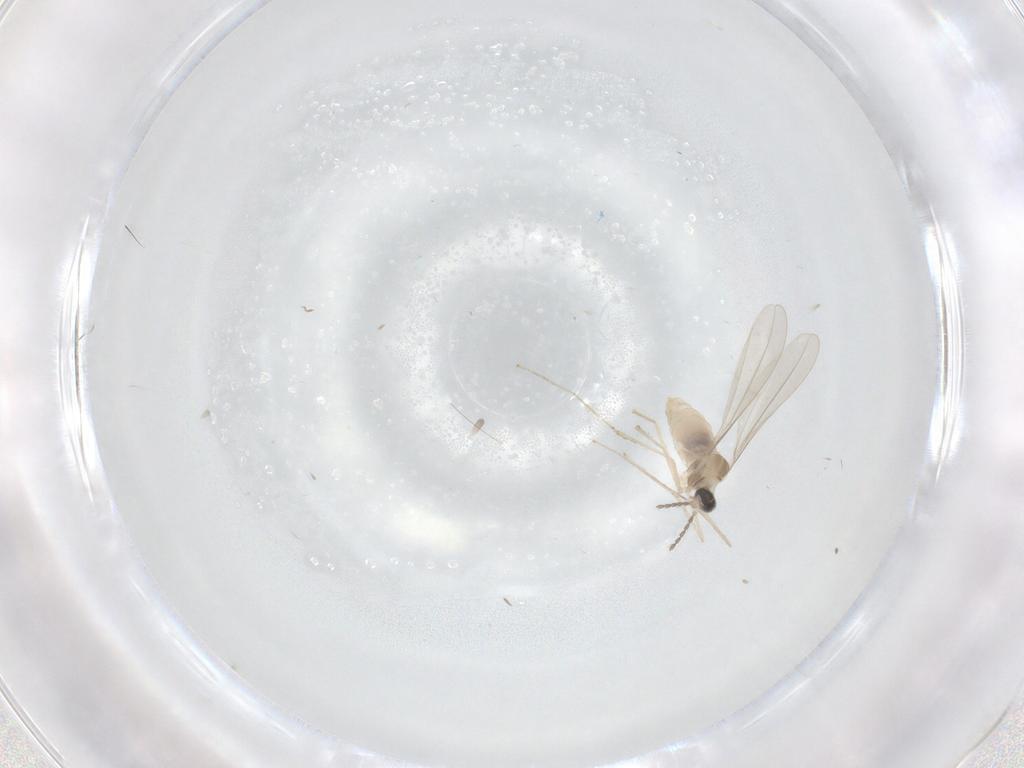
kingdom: Animalia
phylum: Arthropoda
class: Insecta
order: Diptera
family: Cecidomyiidae
